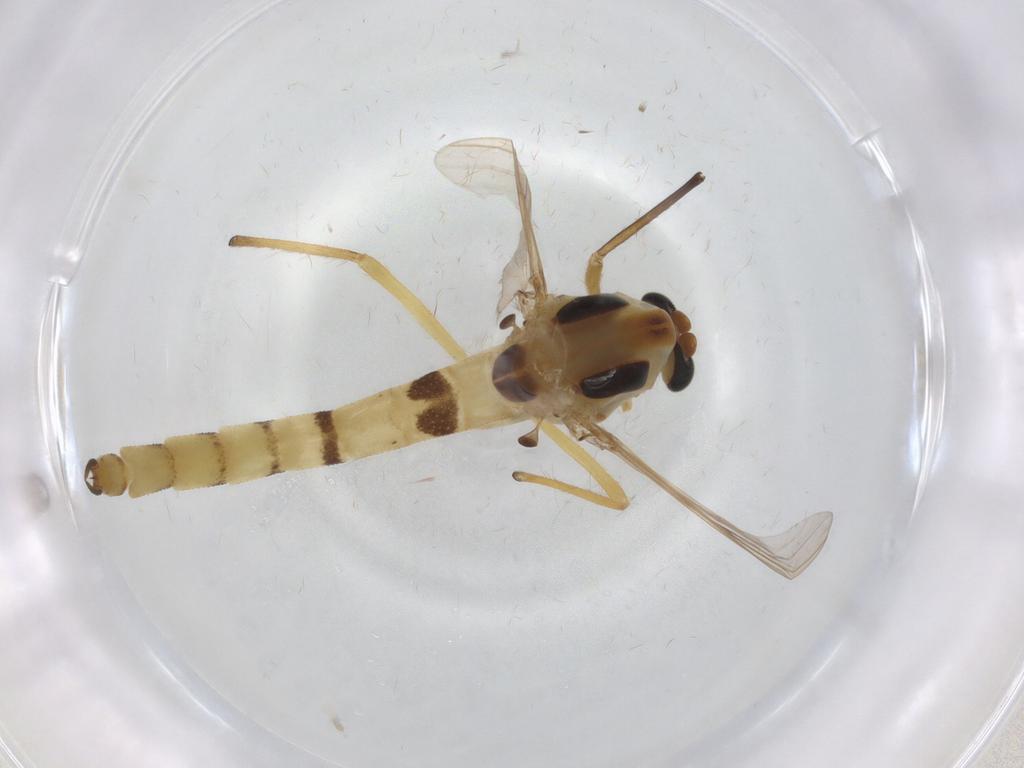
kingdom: Animalia
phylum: Arthropoda
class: Insecta
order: Diptera
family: Chironomidae
